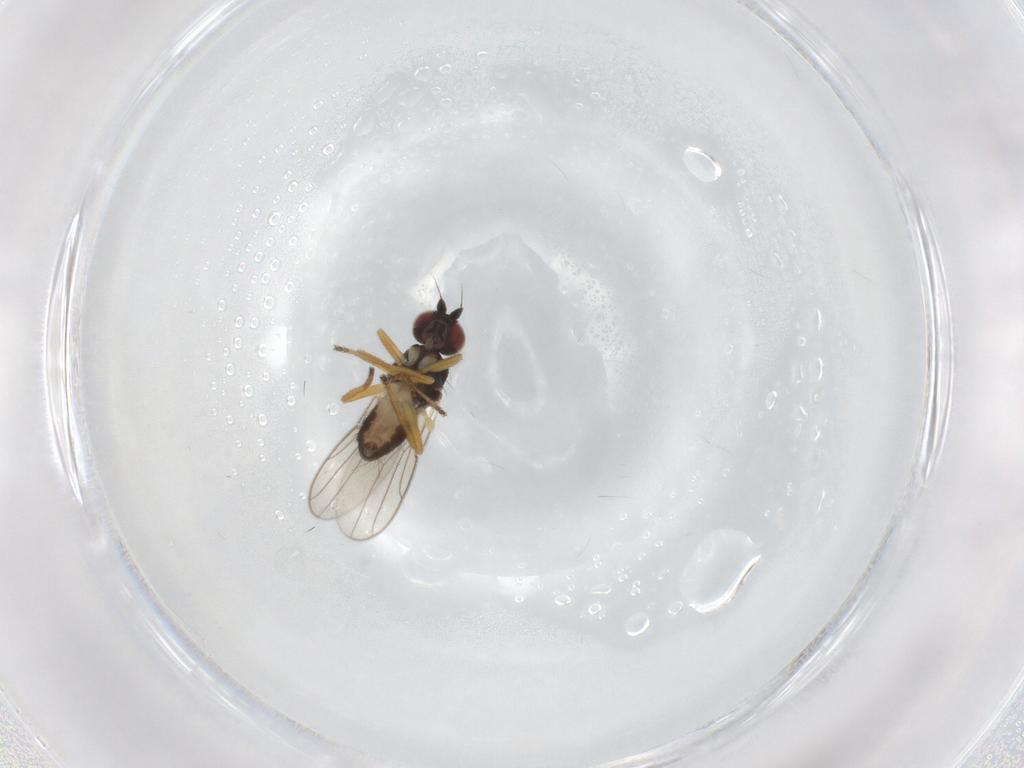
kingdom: Animalia
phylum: Arthropoda
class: Insecta
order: Diptera
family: Chloropidae
